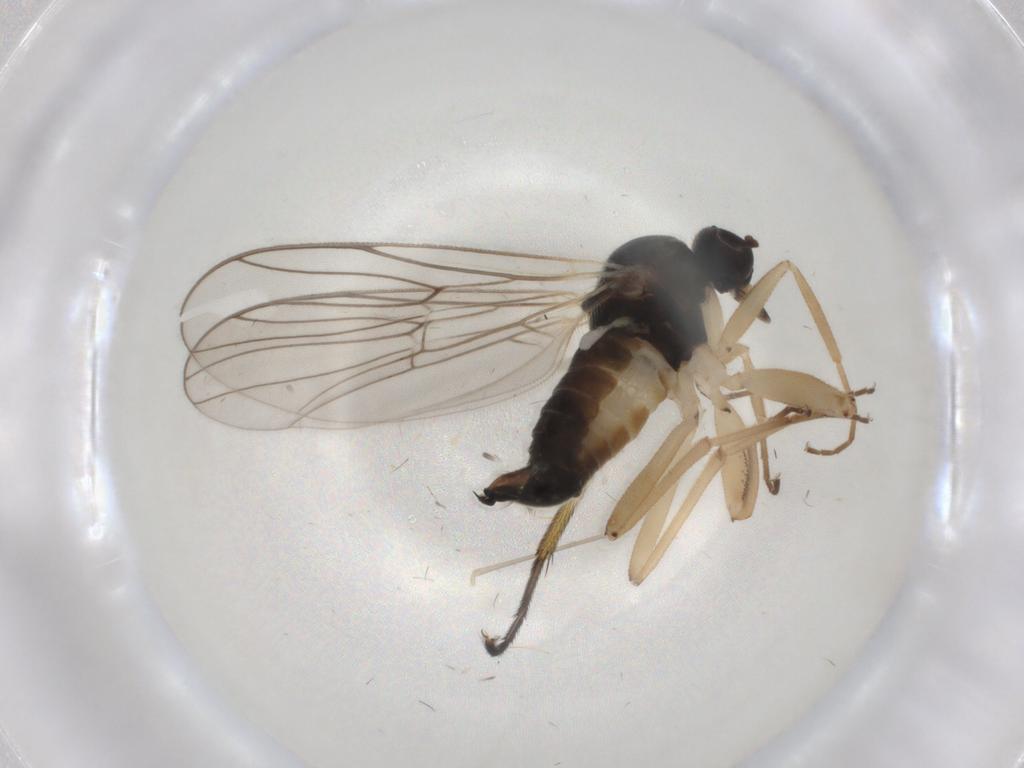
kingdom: Animalia
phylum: Arthropoda
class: Insecta
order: Diptera
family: Hybotidae
